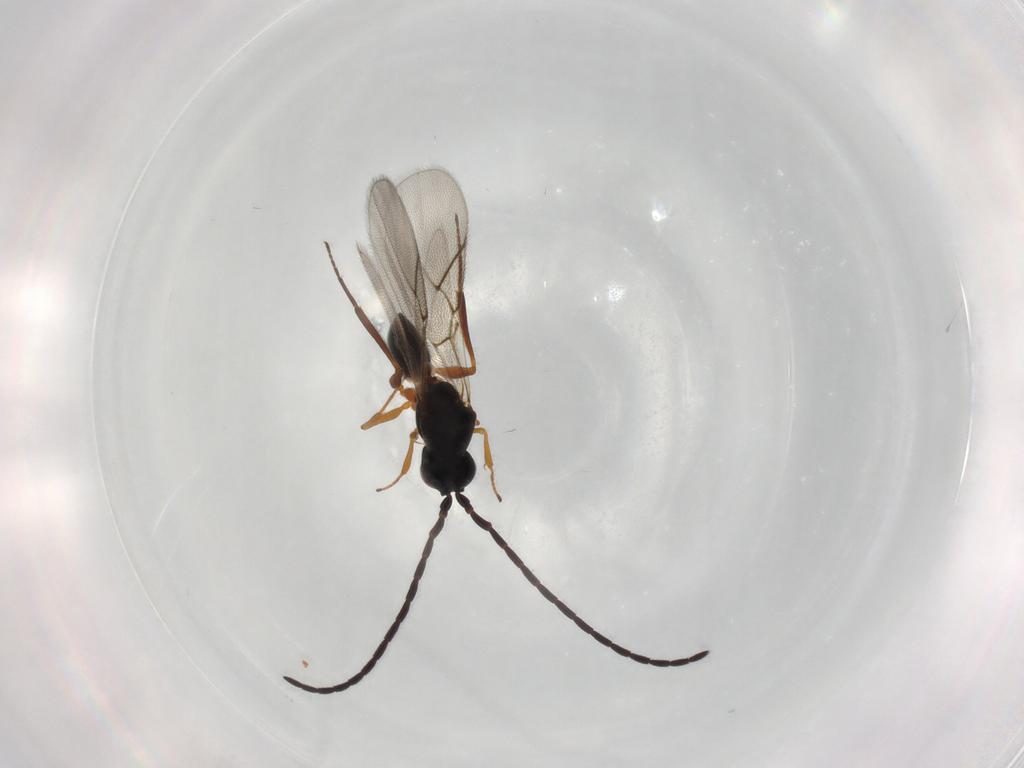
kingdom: Animalia
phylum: Arthropoda
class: Insecta
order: Hymenoptera
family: Figitidae
